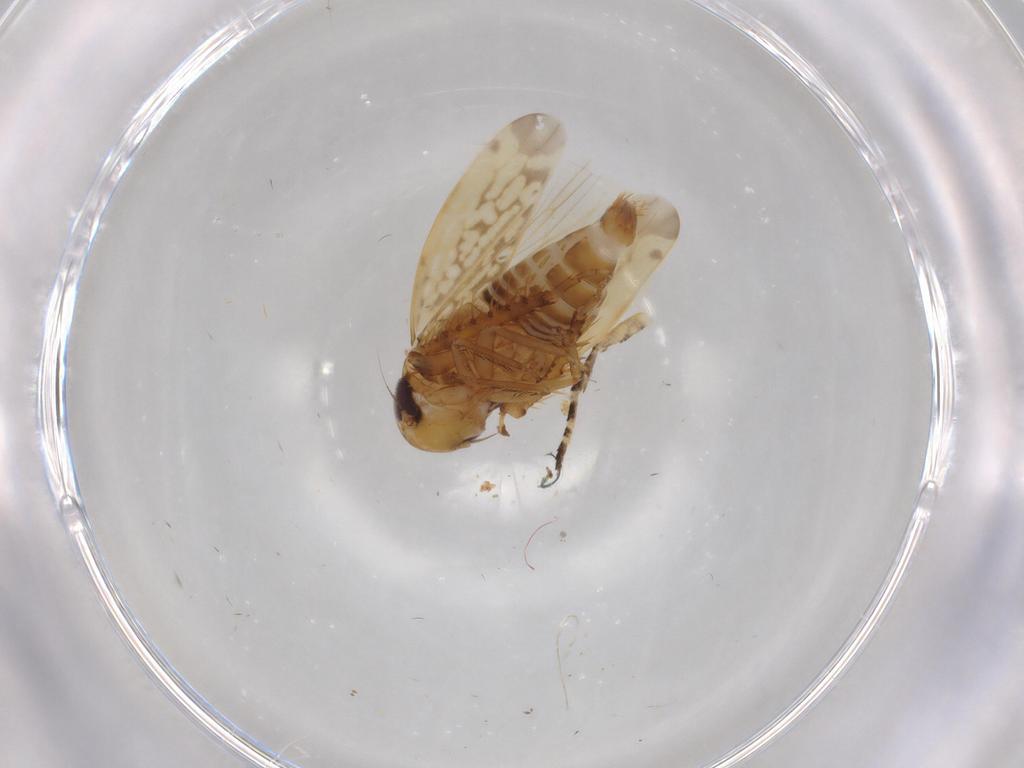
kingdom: Animalia
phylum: Arthropoda
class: Insecta
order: Hemiptera
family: Cicadellidae
